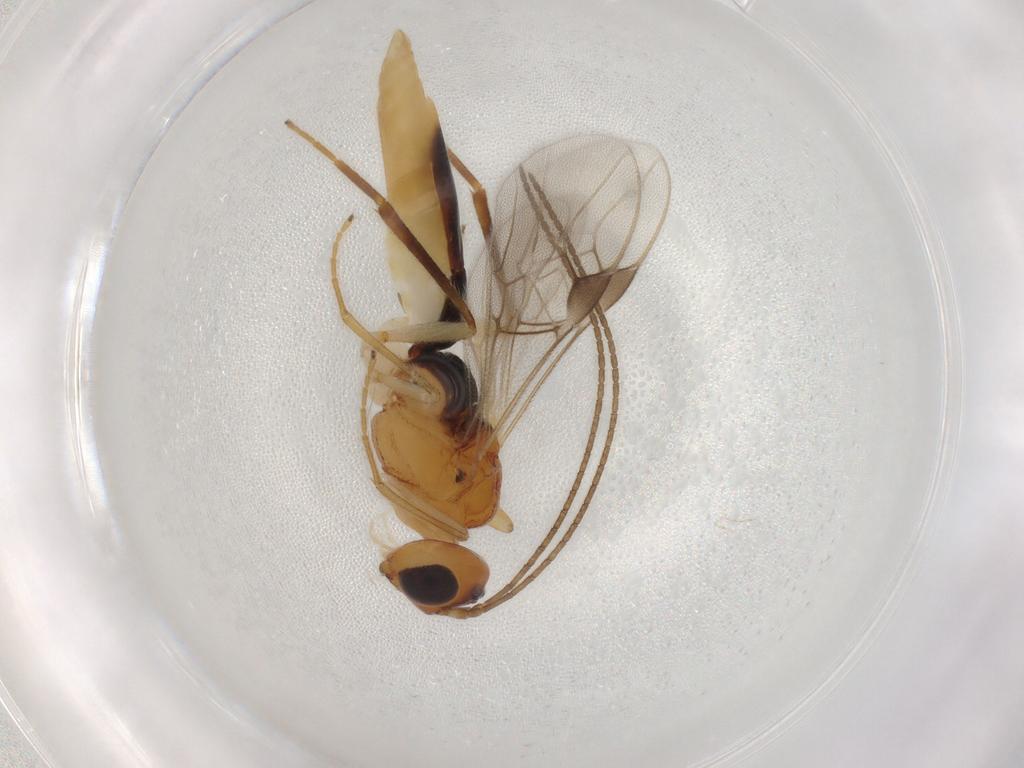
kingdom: Animalia
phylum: Arthropoda
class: Insecta
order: Hymenoptera
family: Braconidae
